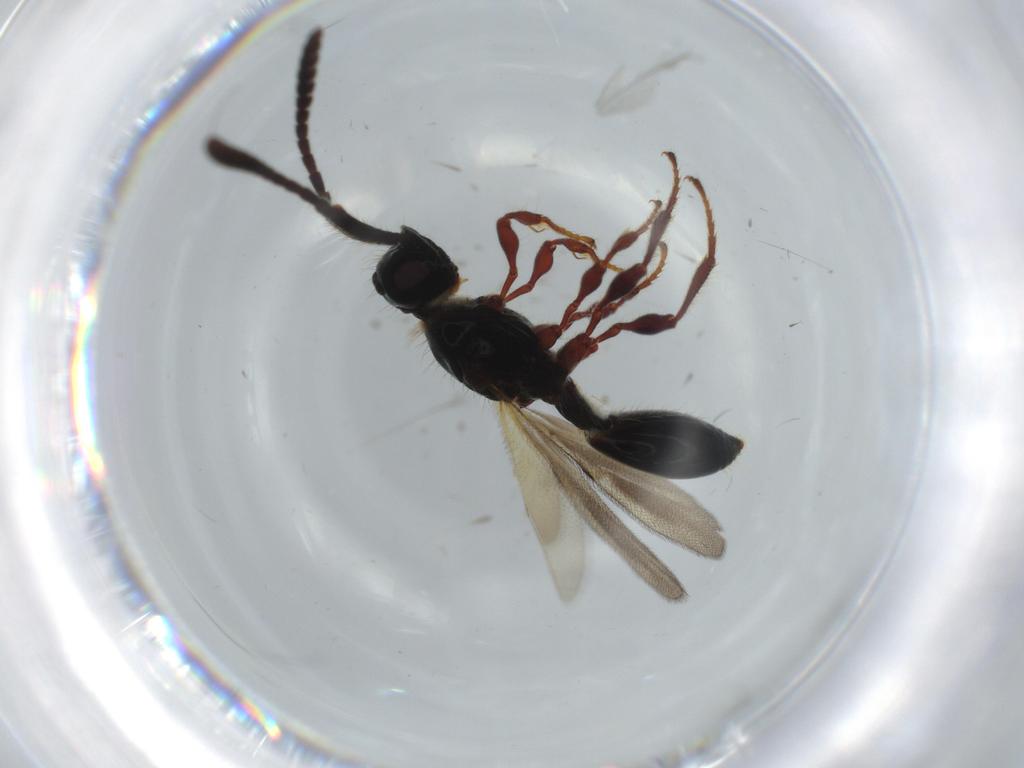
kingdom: Animalia
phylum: Arthropoda
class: Insecta
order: Hymenoptera
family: Diapriidae
